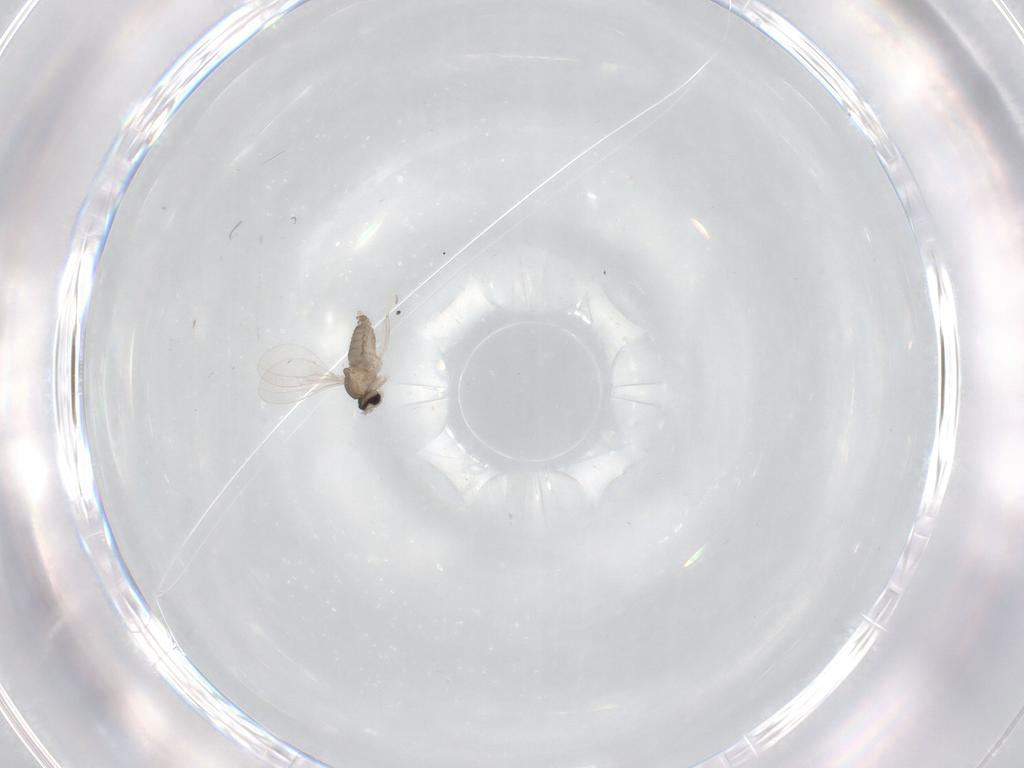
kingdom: Animalia
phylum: Arthropoda
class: Insecta
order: Diptera
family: Cecidomyiidae
